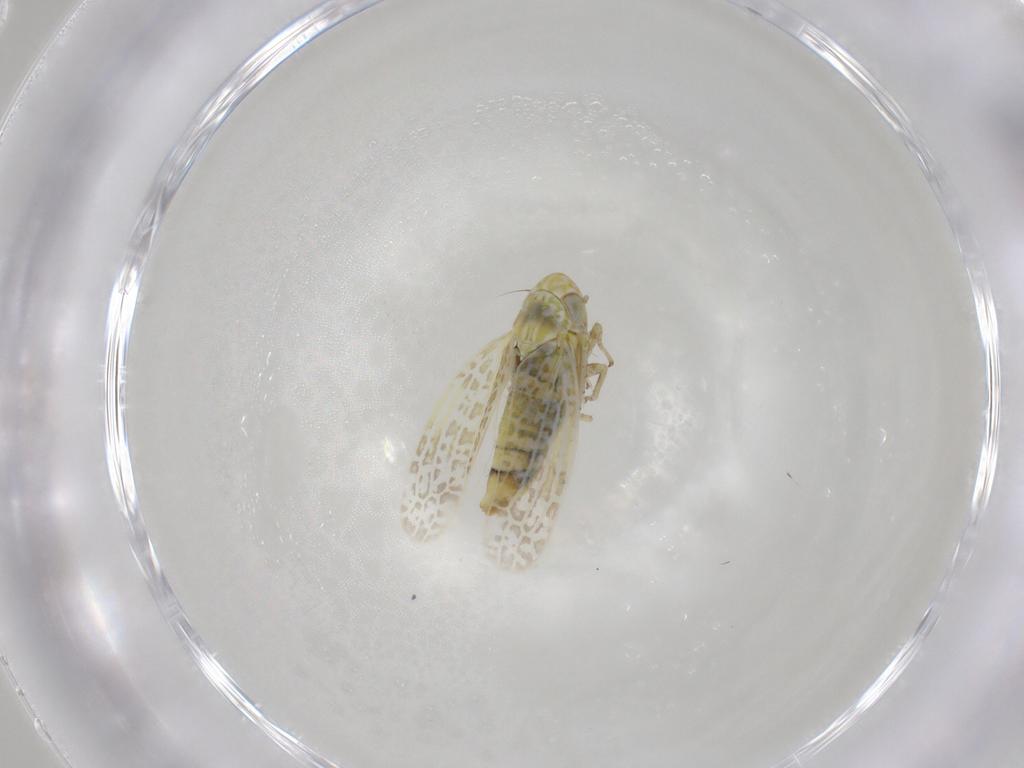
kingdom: Animalia
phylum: Arthropoda
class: Insecta
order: Hemiptera
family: Cicadellidae
